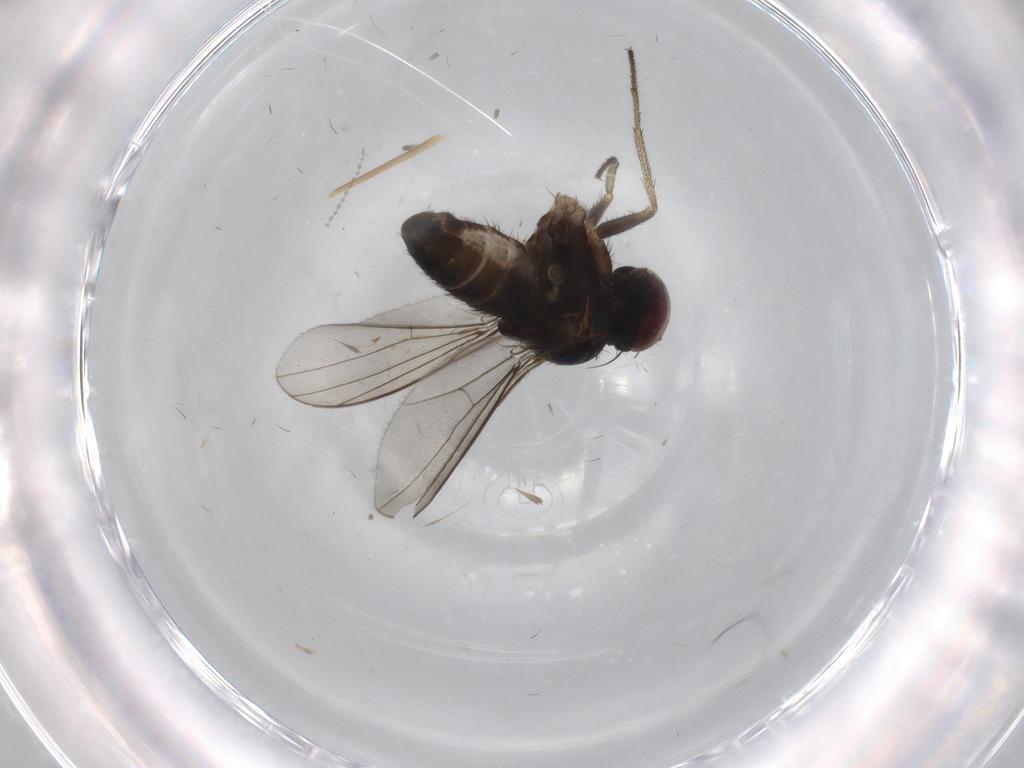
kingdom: Animalia
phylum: Arthropoda
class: Insecta
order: Diptera
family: Dolichopodidae
